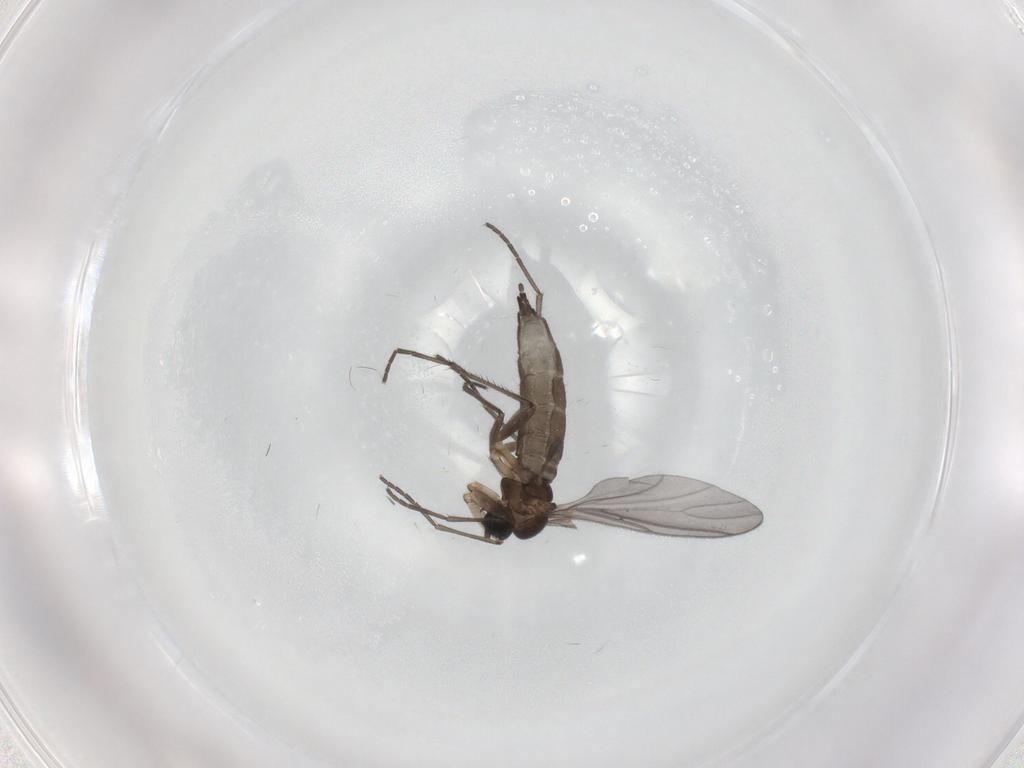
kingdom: Animalia
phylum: Arthropoda
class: Insecta
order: Diptera
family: Sciaridae
